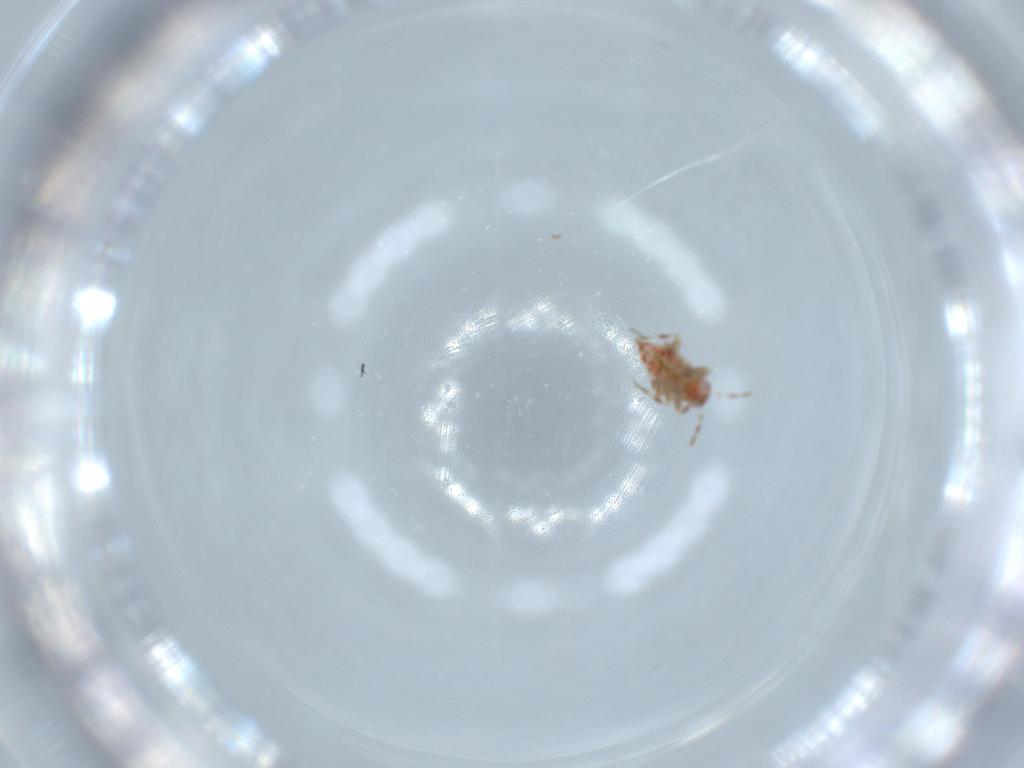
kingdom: Animalia
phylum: Arthropoda
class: Insecta
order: Hemiptera
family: Miridae
